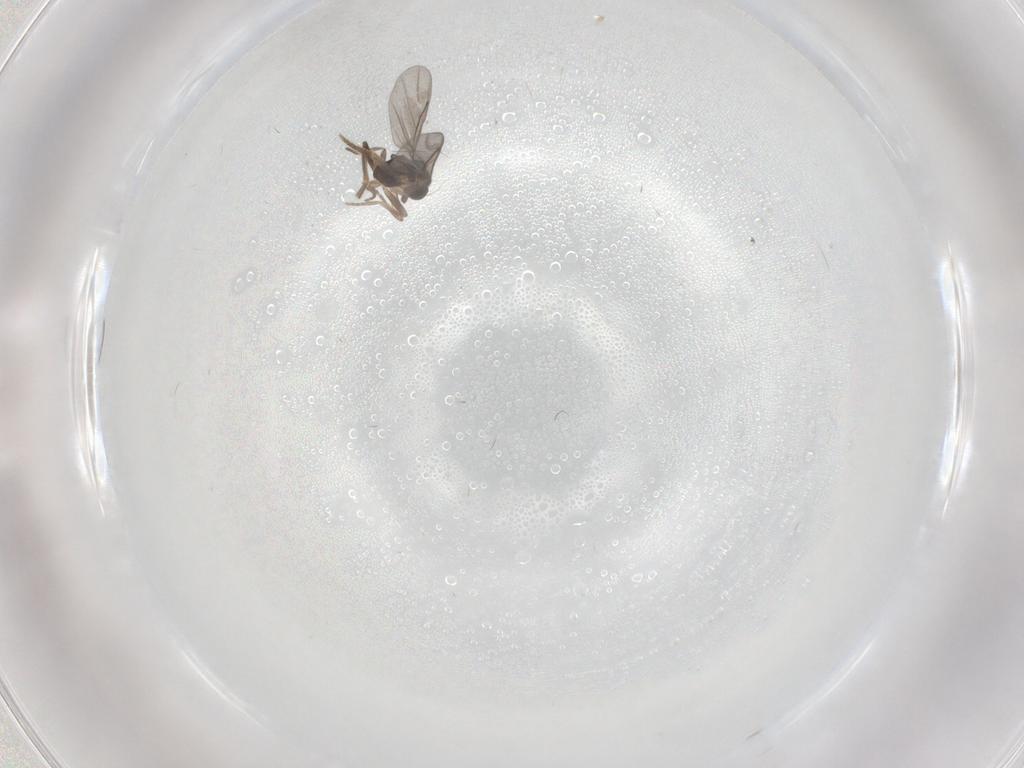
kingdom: Animalia
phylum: Arthropoda
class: Insecta
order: Diptera
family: Phoridae
